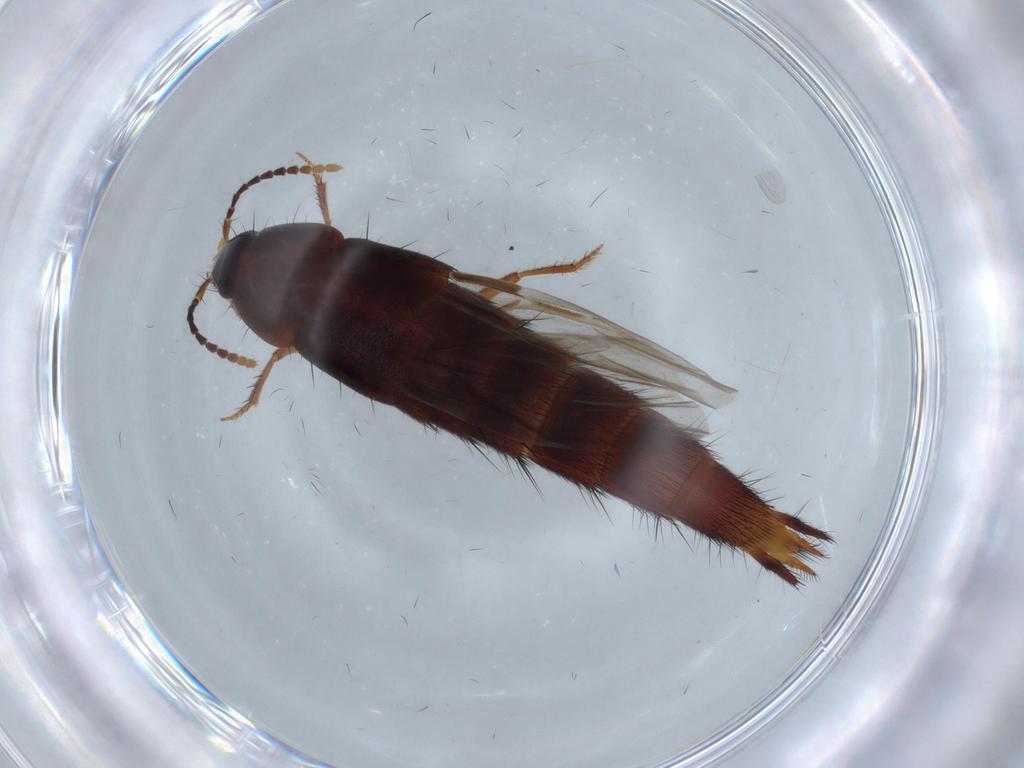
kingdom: Animalia
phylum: Arthropoda
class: Insecta
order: Coleoptera
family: Staphylinidae
